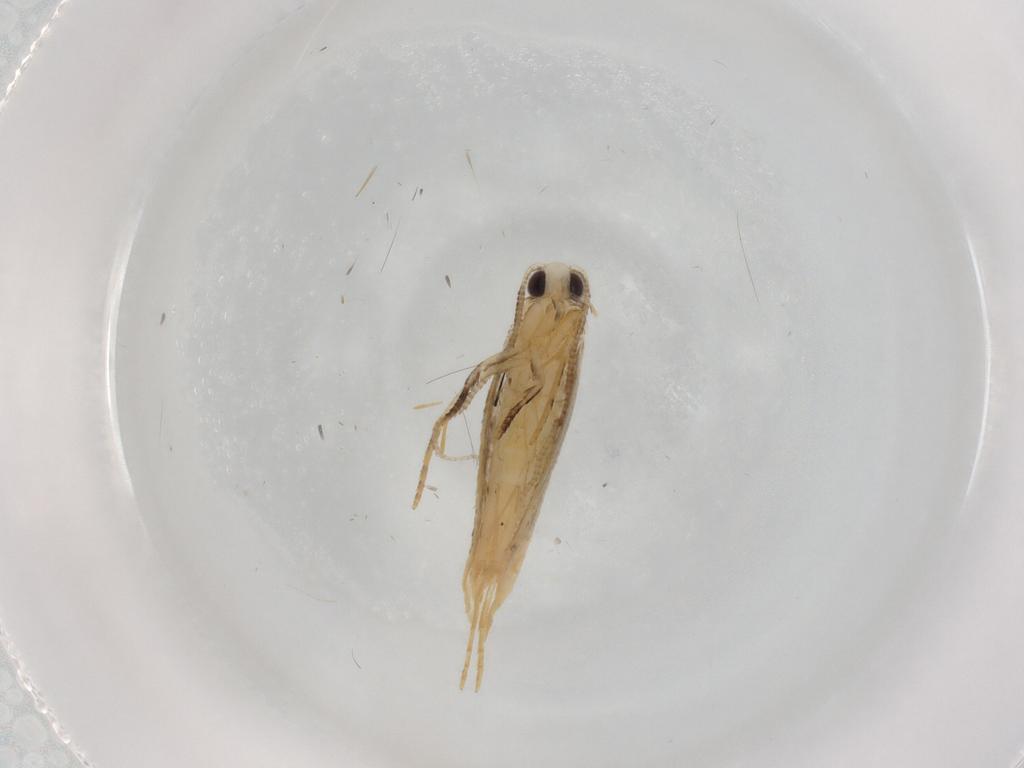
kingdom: Animalia
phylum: Arthropoda
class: Insecta
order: Lepidoptera
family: Tineidae
